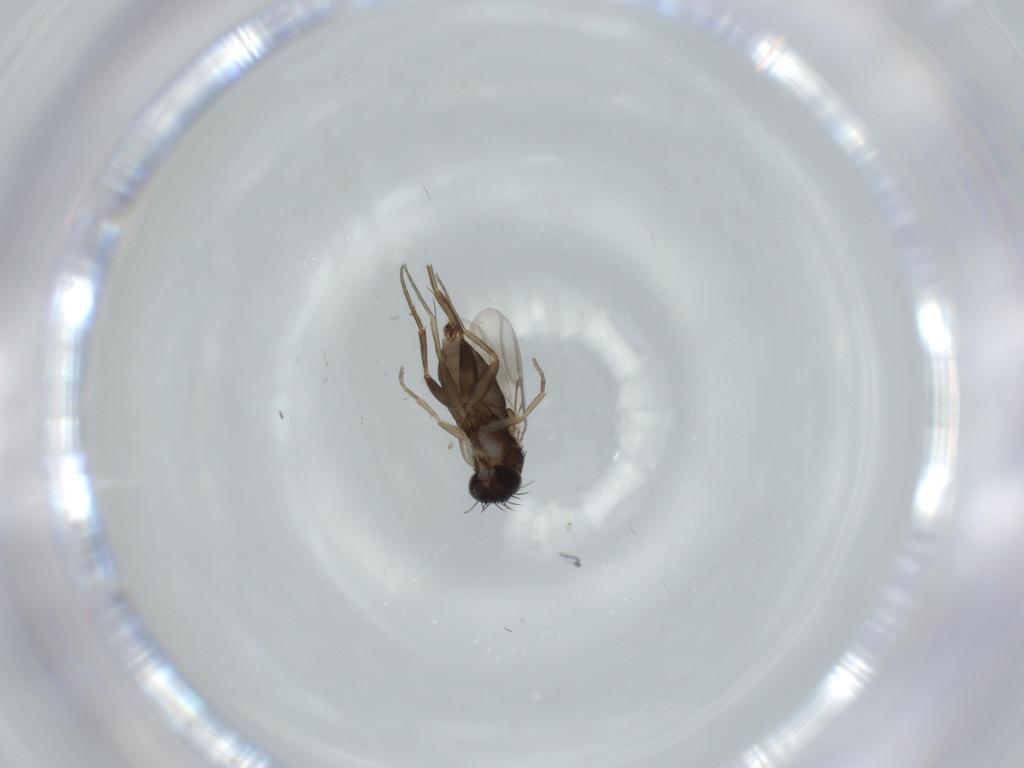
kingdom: Animalia
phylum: Arthropoda
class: Insecta
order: Diptera
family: Phoridae
